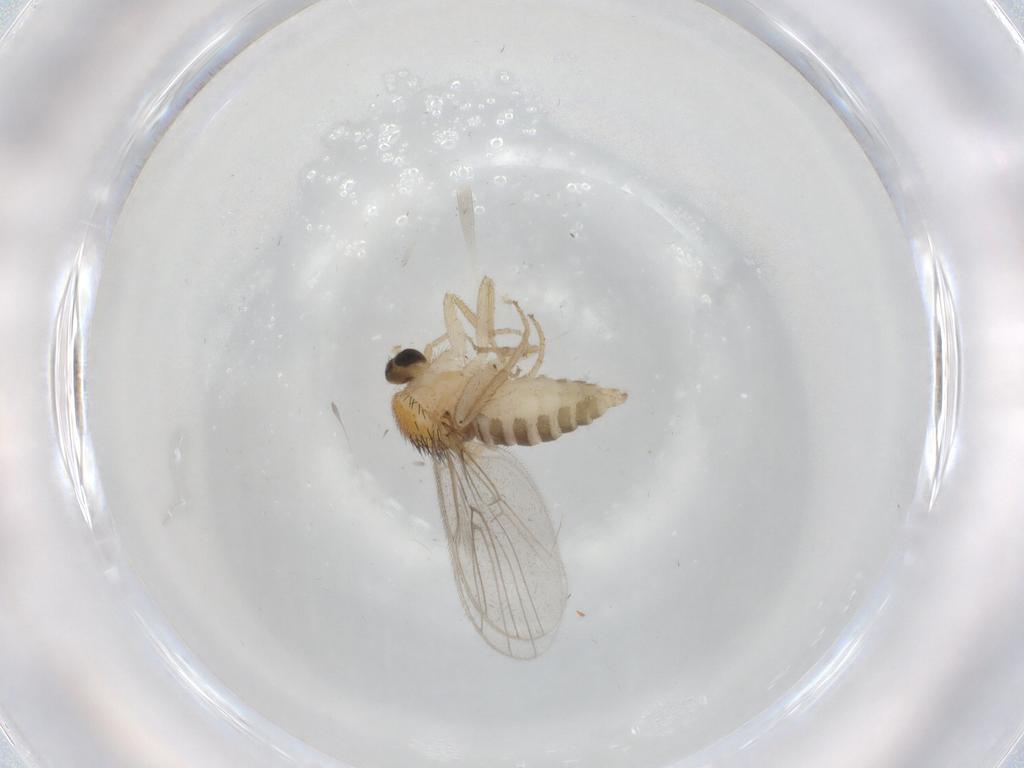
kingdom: Animalia
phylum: Arthropoda
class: Insecta
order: Diptera
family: Hybotidae
